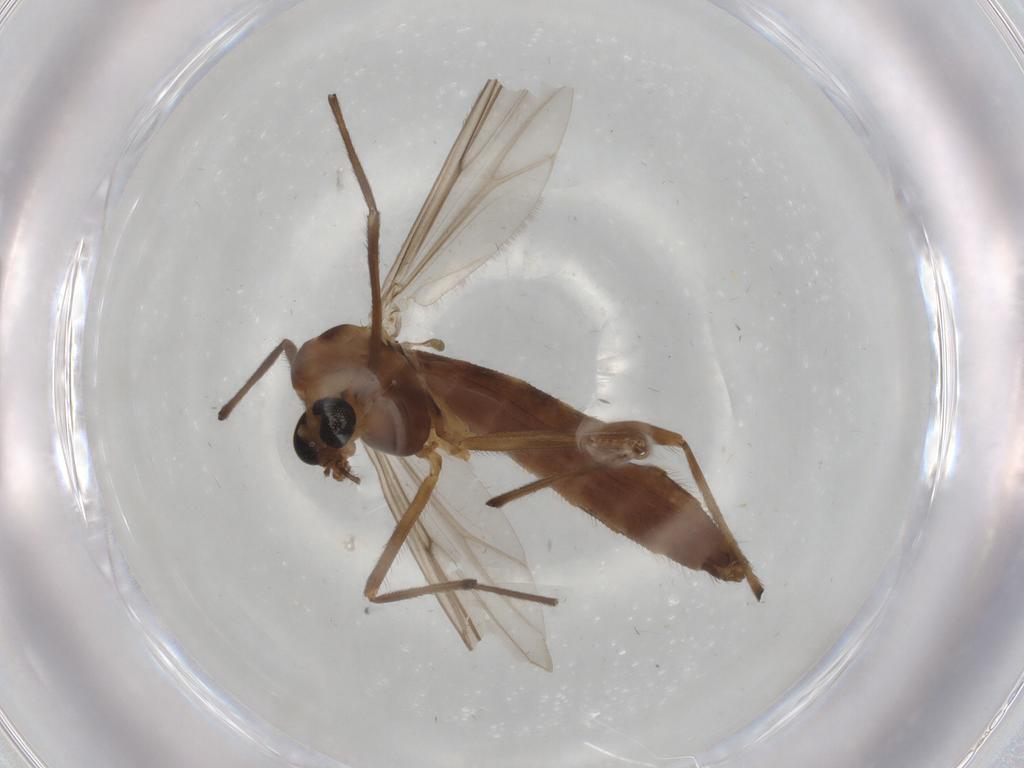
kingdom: Animalia
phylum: Arthropoda
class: Insecta
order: Diptera
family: Chironomidae
